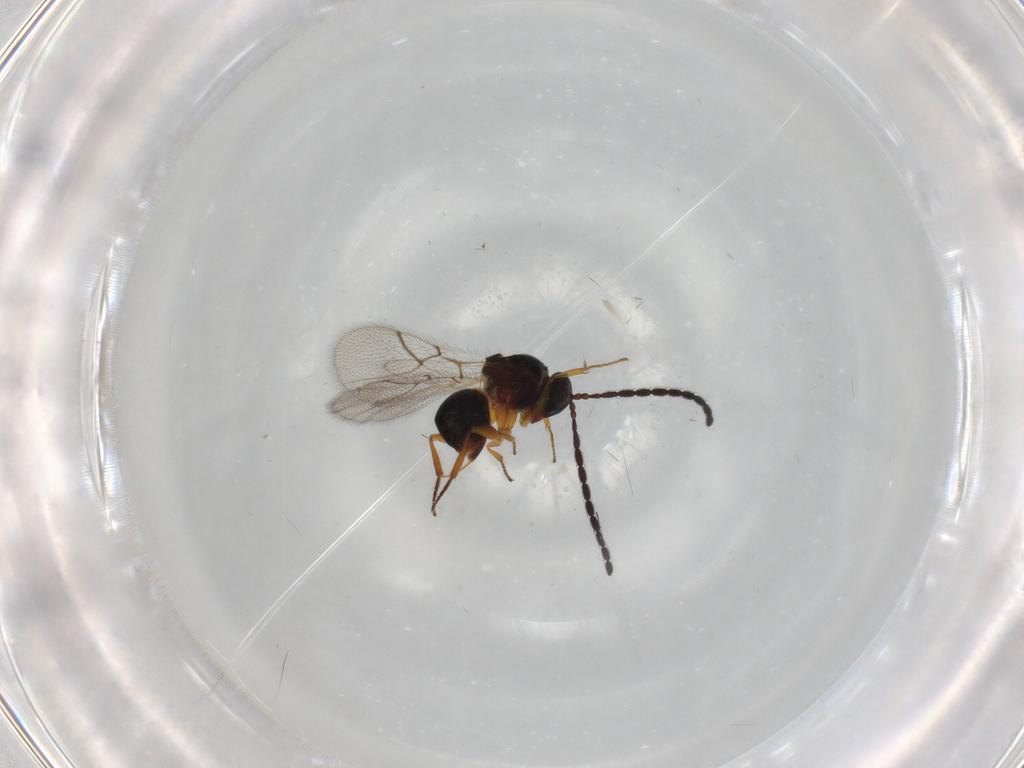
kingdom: Animalia
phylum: Arthropoda
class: Insecta
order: Hymenoptera
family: Figitidae
